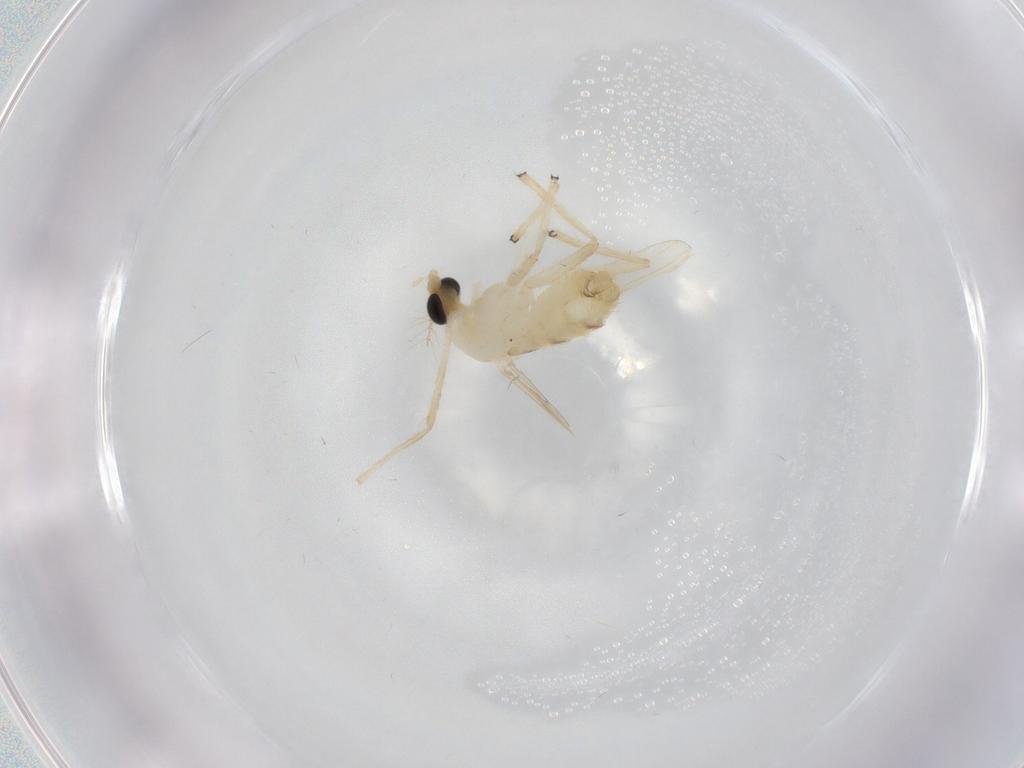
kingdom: Animalia
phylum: Arthropoda
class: Insecta
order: Diptera
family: Chironomidae
